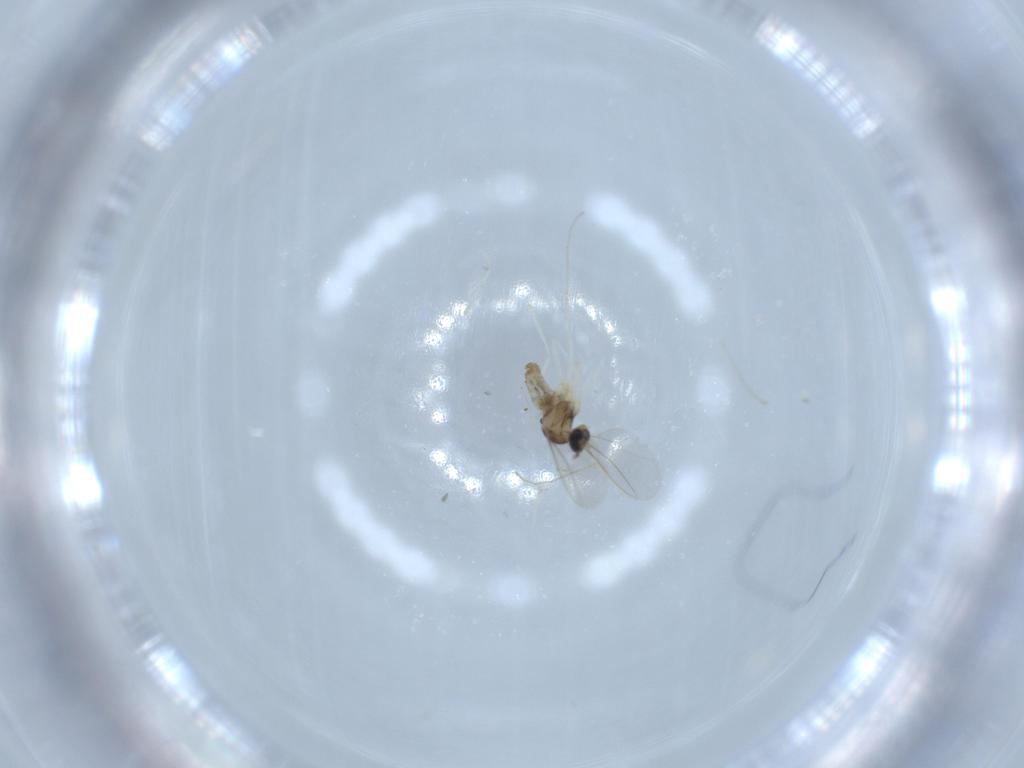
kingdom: Animalia
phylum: Arthropoda
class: Insecta
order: Diptera
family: Cecidomyiidae
